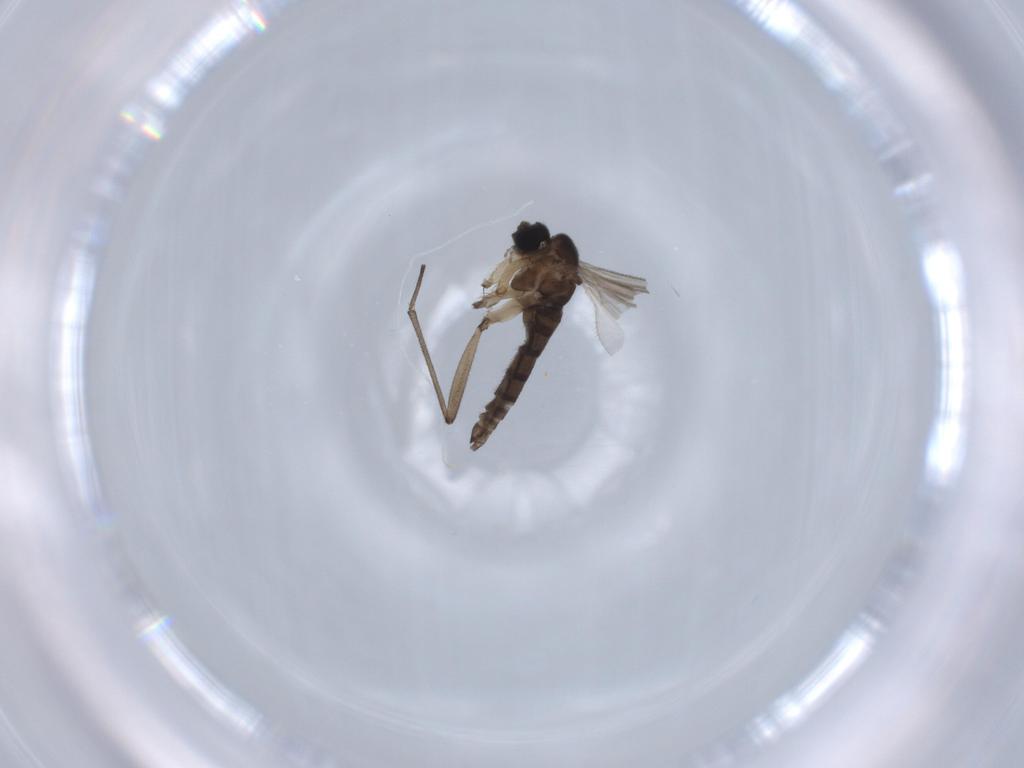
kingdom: Animalia
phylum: Arthropoda
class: Insecta
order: Diptera
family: Sciaridae
